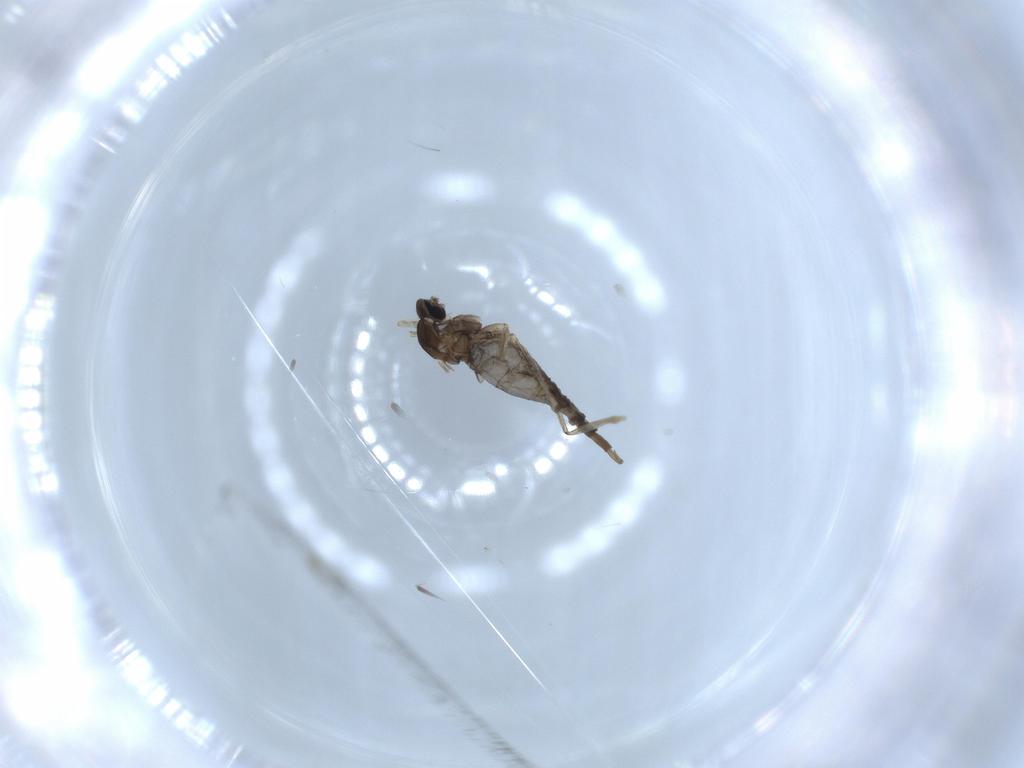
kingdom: Animalia
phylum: Arthropoda
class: Insecta
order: Diptera
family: Cecidomyiidae
